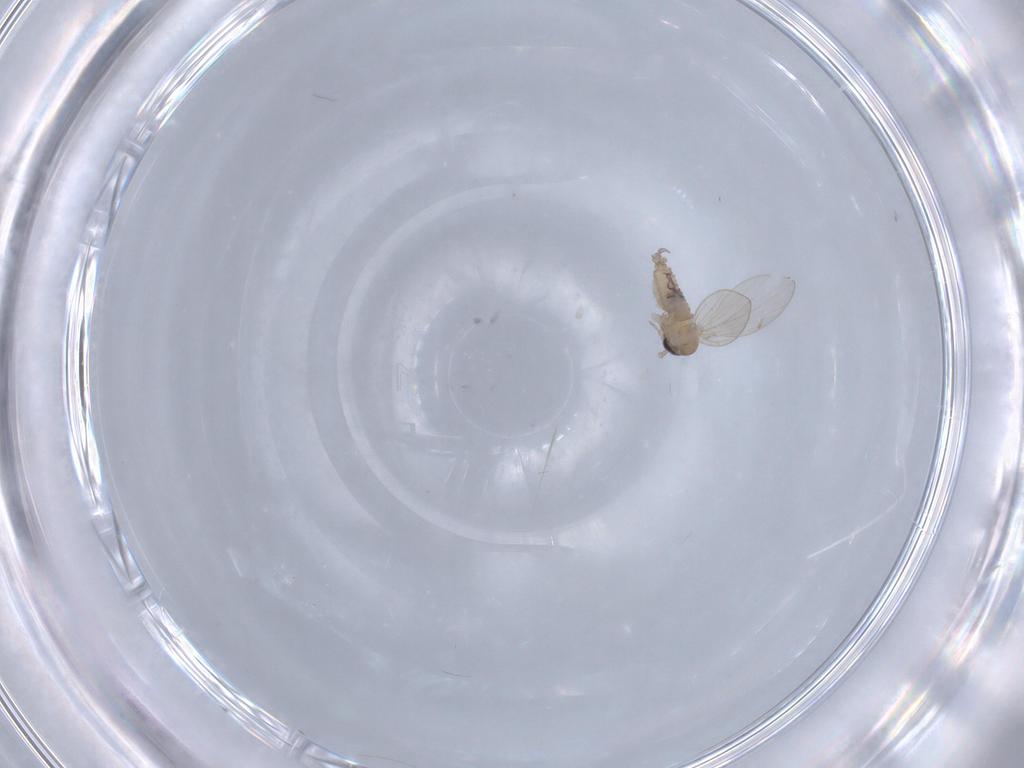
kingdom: Animalia
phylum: Arthropoda
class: Insecta
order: Diptera
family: Psychodidae
